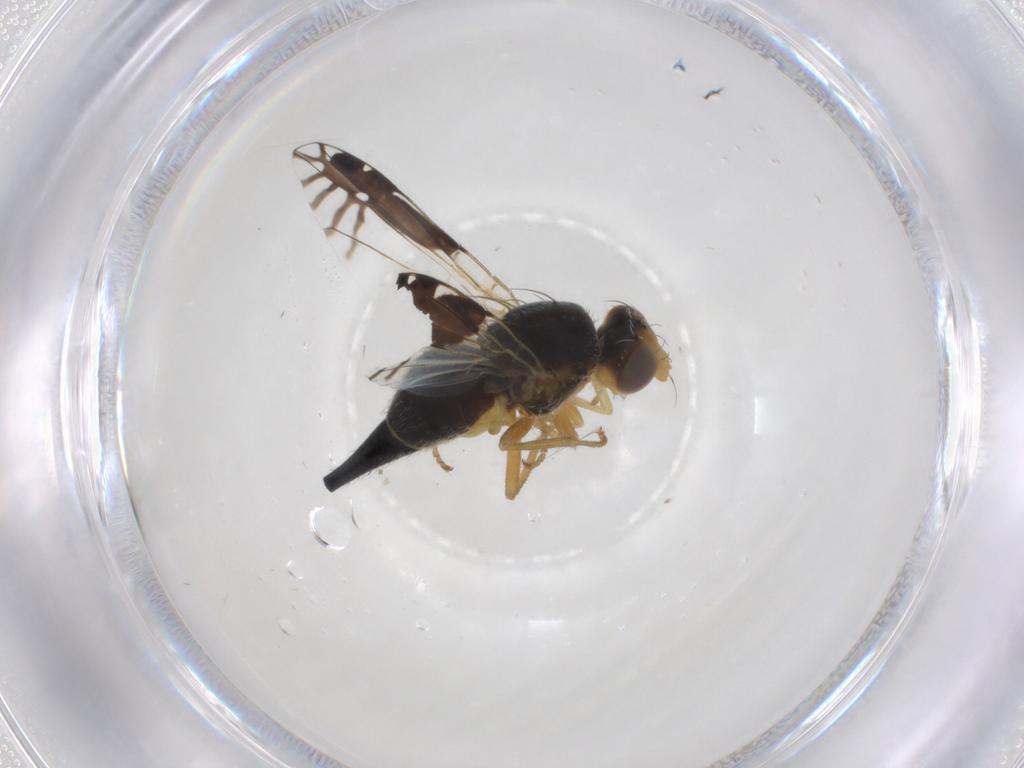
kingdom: Animalia
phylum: Arthropoda
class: Insecta
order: Diptera
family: Tephritidae
